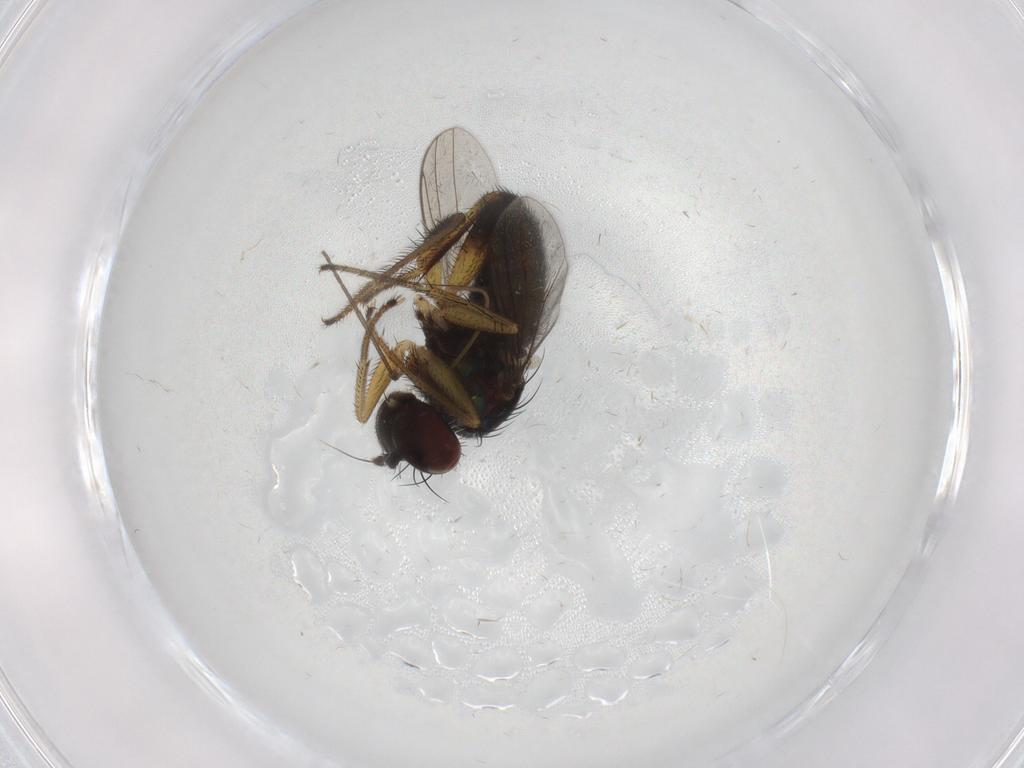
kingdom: Animalia
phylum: Arthropoda
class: Insecta
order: Diptera
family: Dolichopodidae
